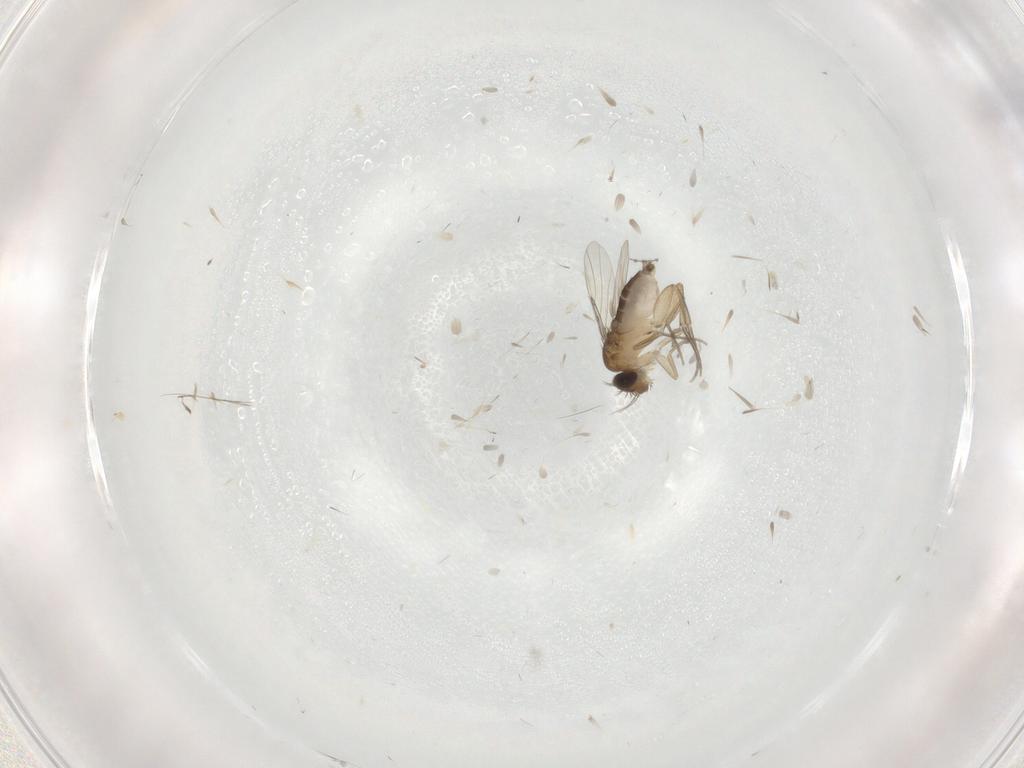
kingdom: Animalia
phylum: Arthropoda
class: Insecta
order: Diptera
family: Phoridae
